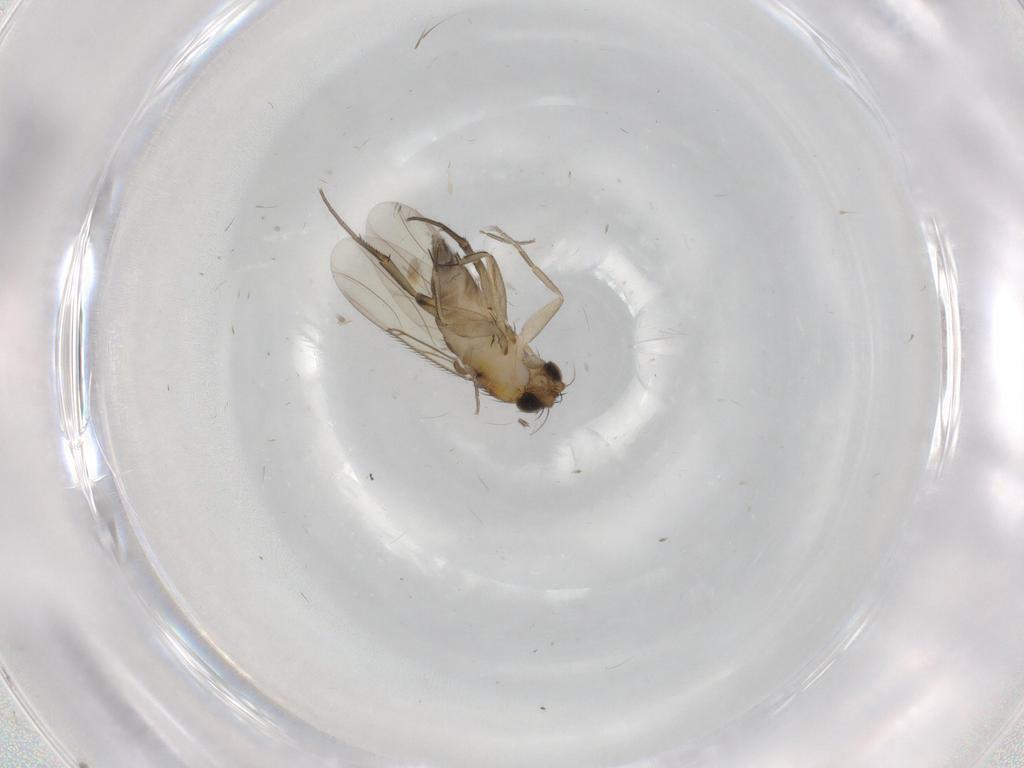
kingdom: Animalia
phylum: Arthropoda
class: Insecta
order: Diptera
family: Phoridae
